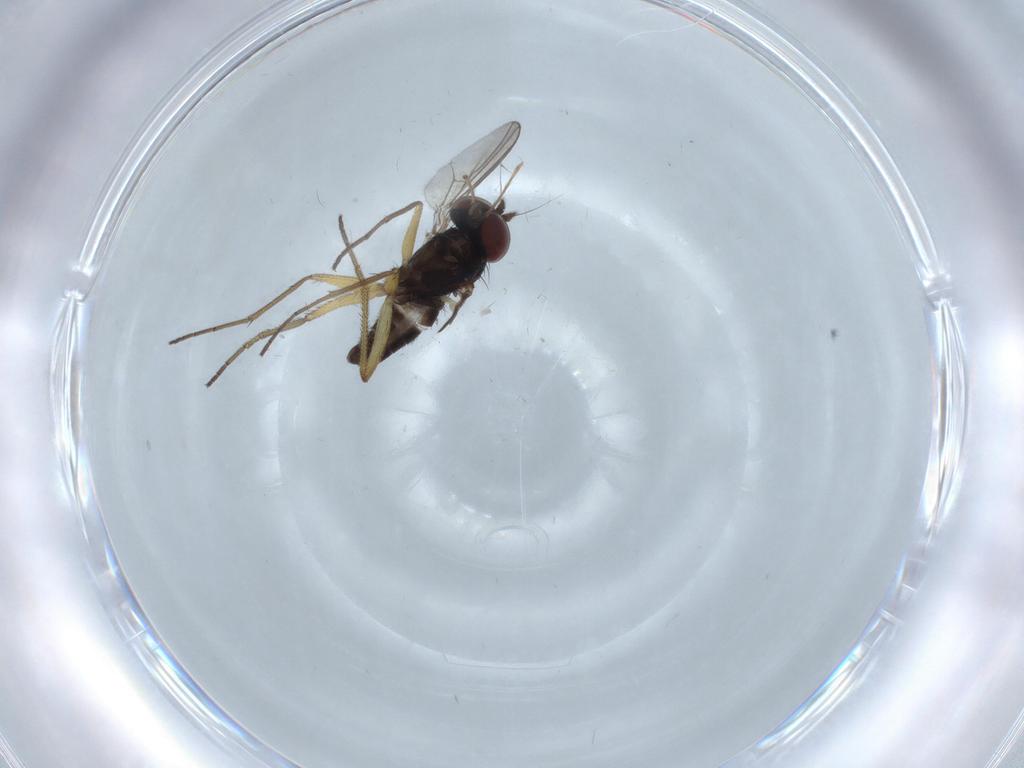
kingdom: Animalia
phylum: Arthropoda
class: Insecta
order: Diptera
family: Dolichopodidae
